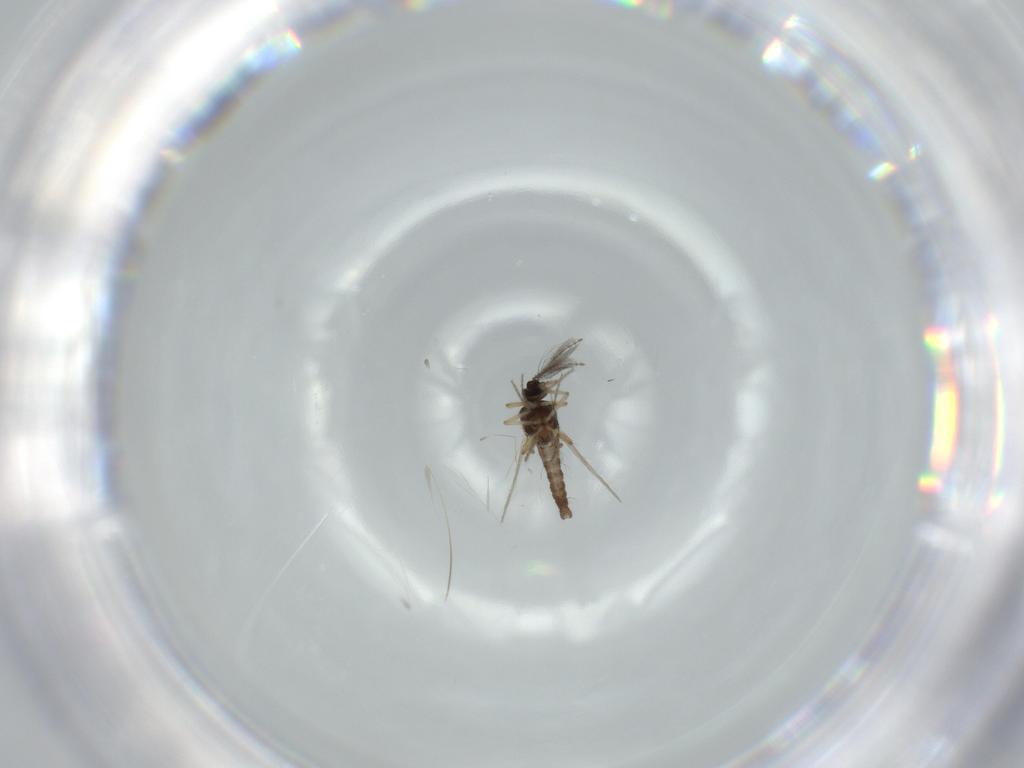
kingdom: Animalia
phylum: Arthropoda
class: Insecta
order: Diptera
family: Ceratopogonidae
